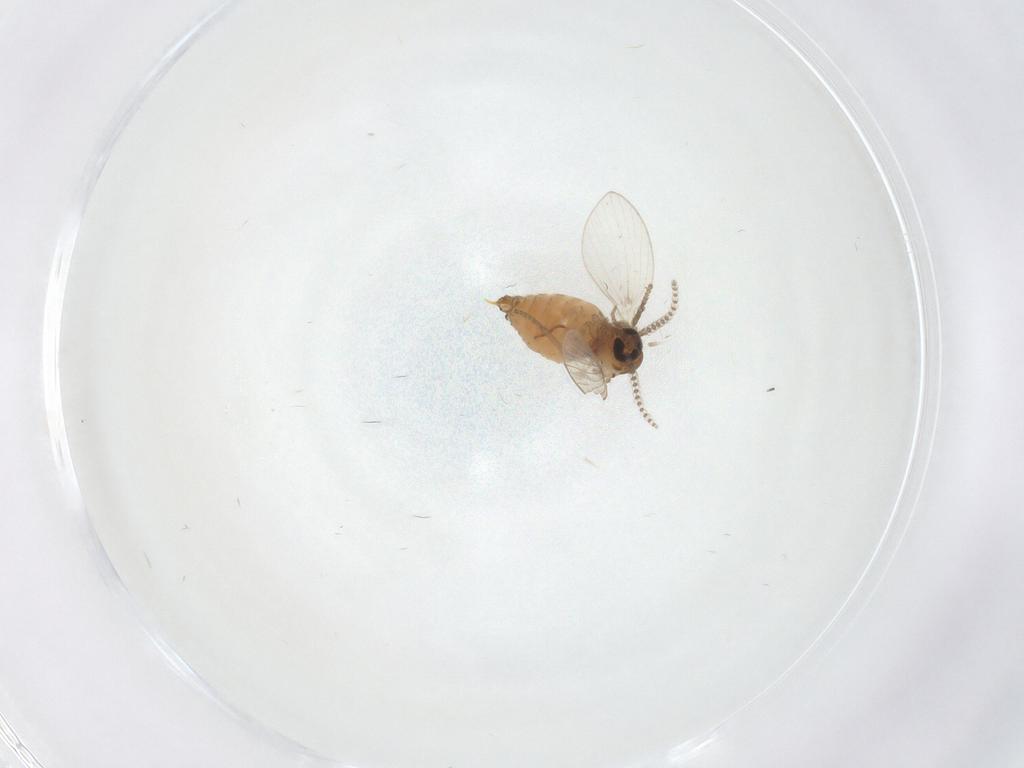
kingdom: Animalia
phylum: Arthropoda
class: Insecta
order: Diptera
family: Psychodidae
